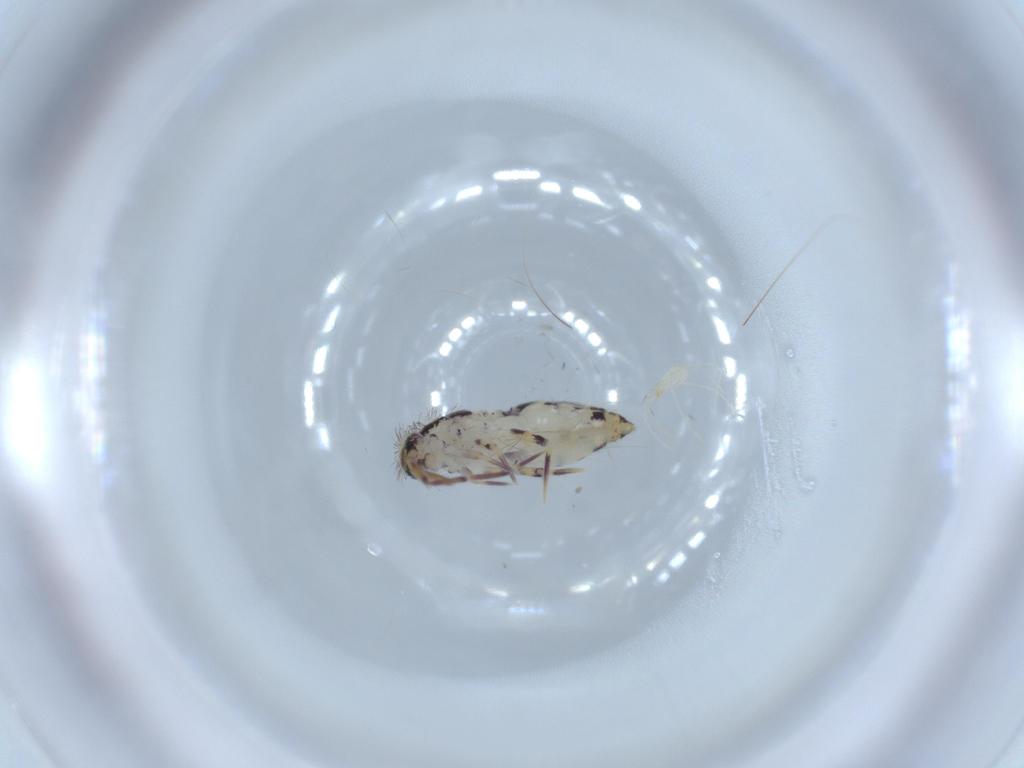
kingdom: Animalia
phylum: Arthropoda
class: Collembola
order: Entomobryomorpha
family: Entomobryidae
